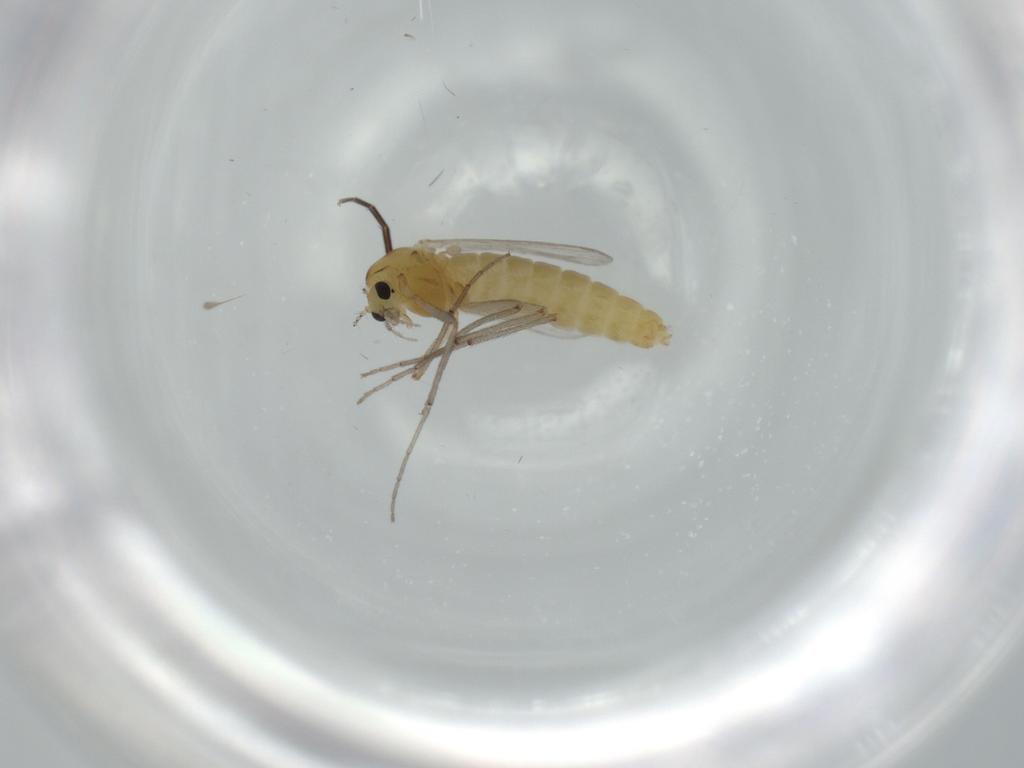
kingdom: Animalia
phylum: Arthropoda
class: Insecta
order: Diptera
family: Chironomidae
